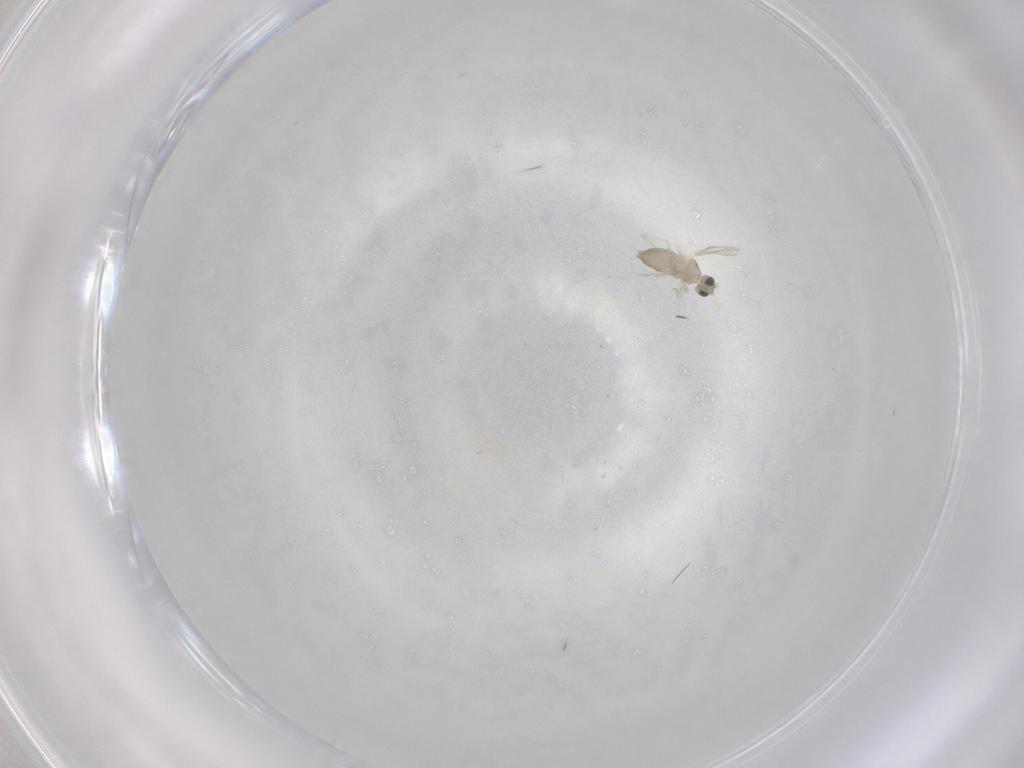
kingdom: Animalia
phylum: Arthropoda
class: Insecta
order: Diptera
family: Cecidomyiidae
